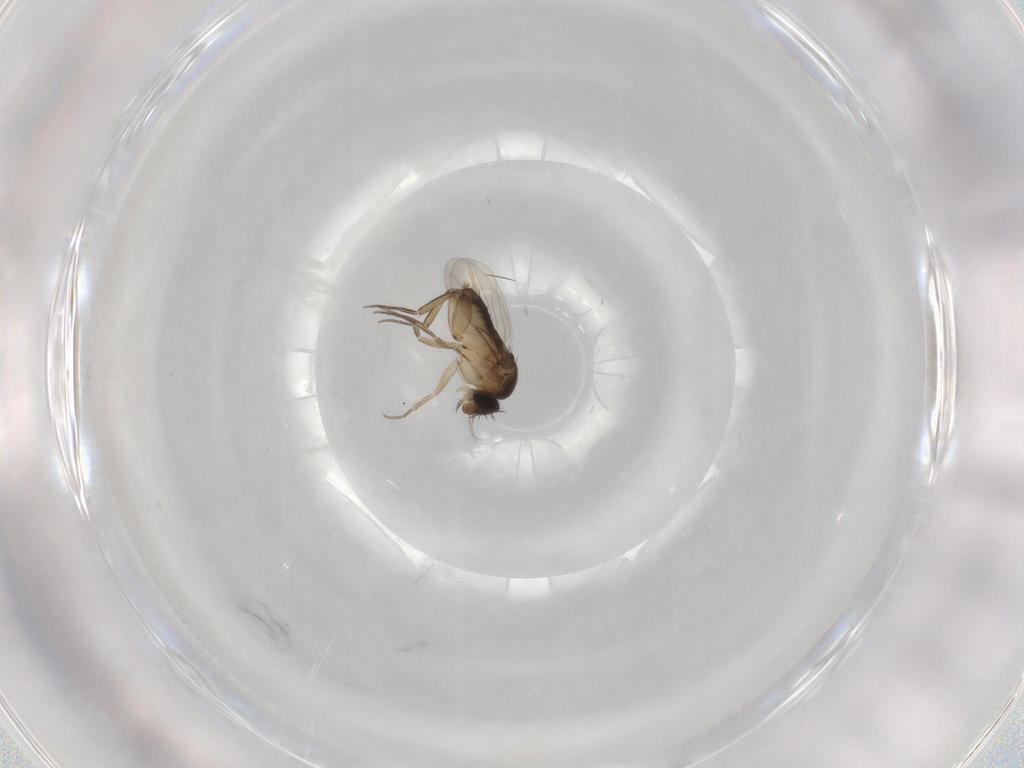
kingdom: Animalia
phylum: Arthropoda
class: Insecta
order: Diptera
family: Phoridae
